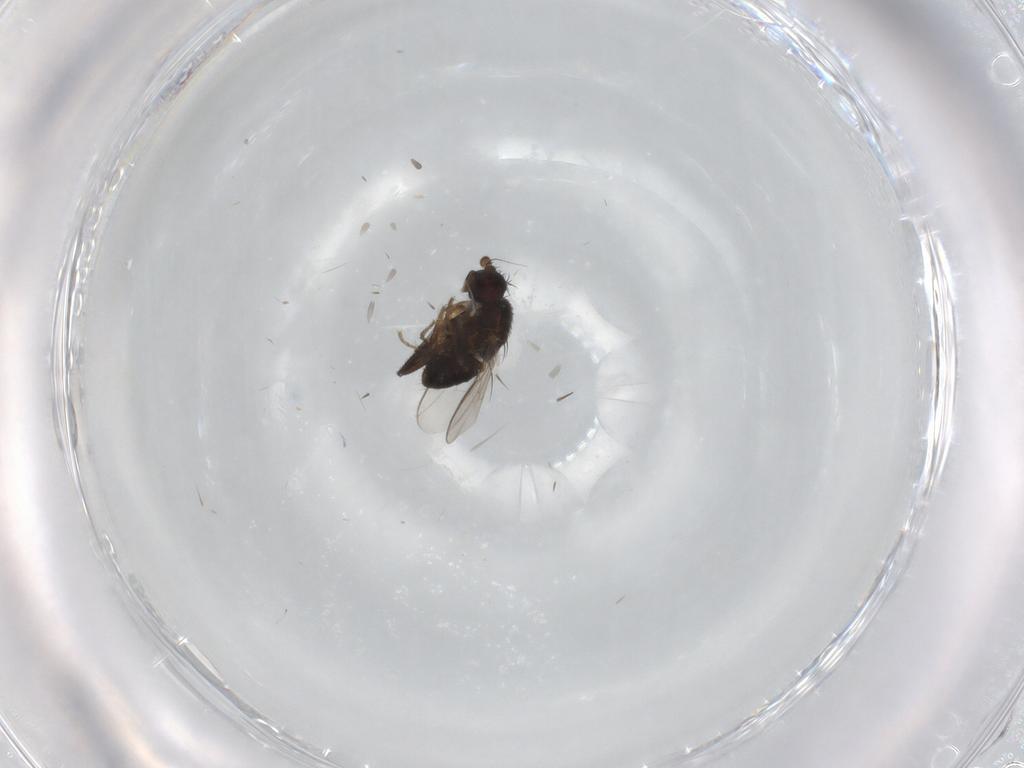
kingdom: Animalia
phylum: Arthropoda
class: Insecta
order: Diptera
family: Sphaeroceridae
